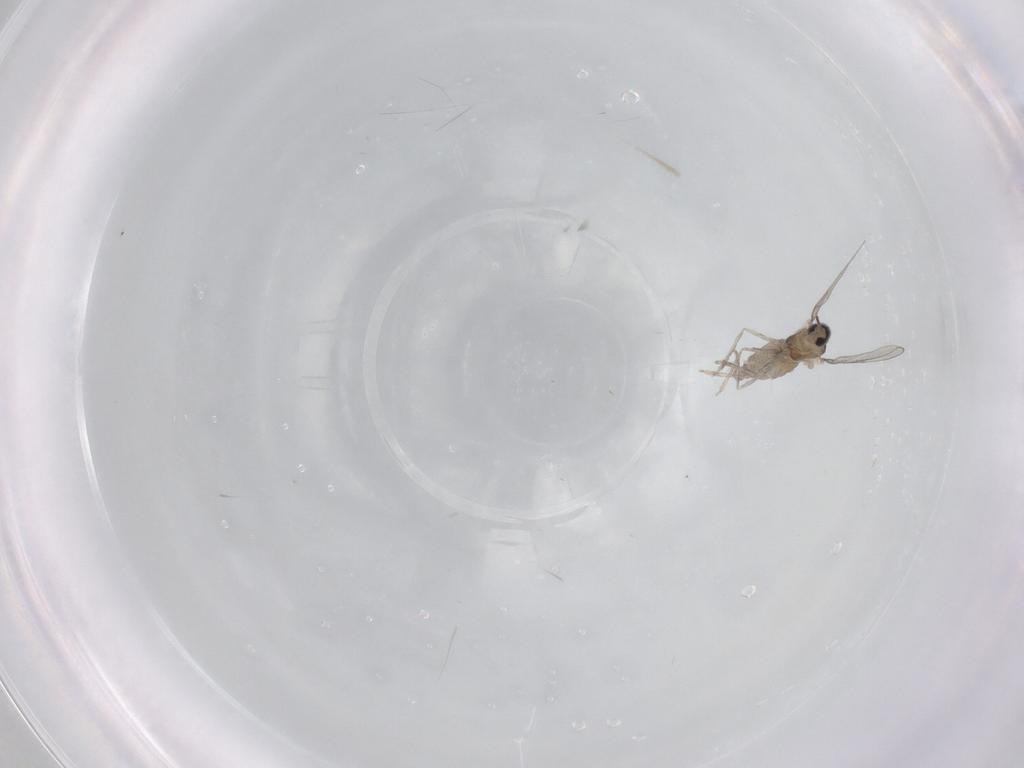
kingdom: Animalia
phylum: Arthropoda
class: Insecta
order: Diptera
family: Cecidomyiidae
